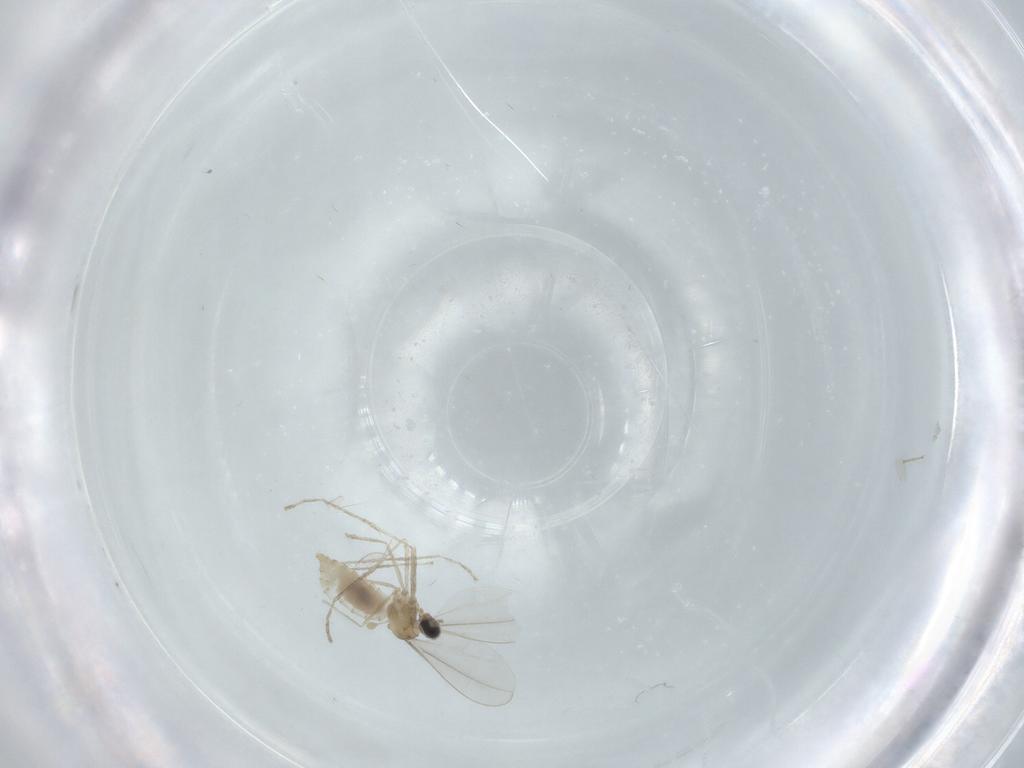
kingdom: Animalia
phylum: Arthropoda
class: Insecta
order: Diptera
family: Cecidomyiidae
